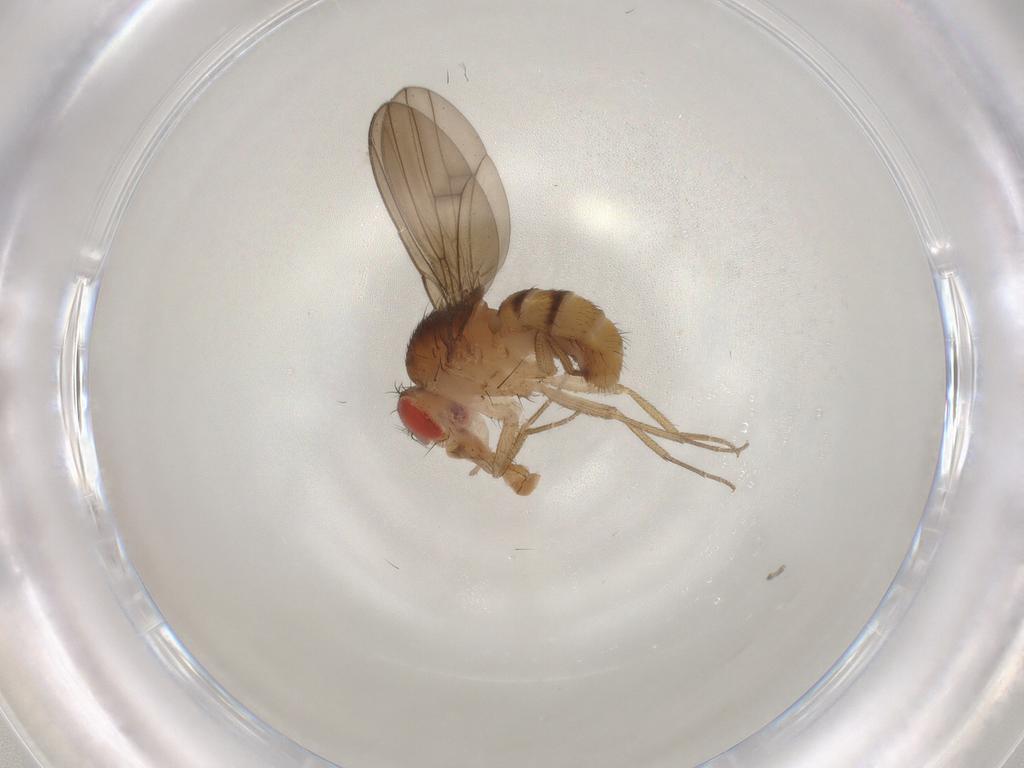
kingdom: Animalia
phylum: Arthropoda
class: Insecta
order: Diptera
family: Drosophilidae
